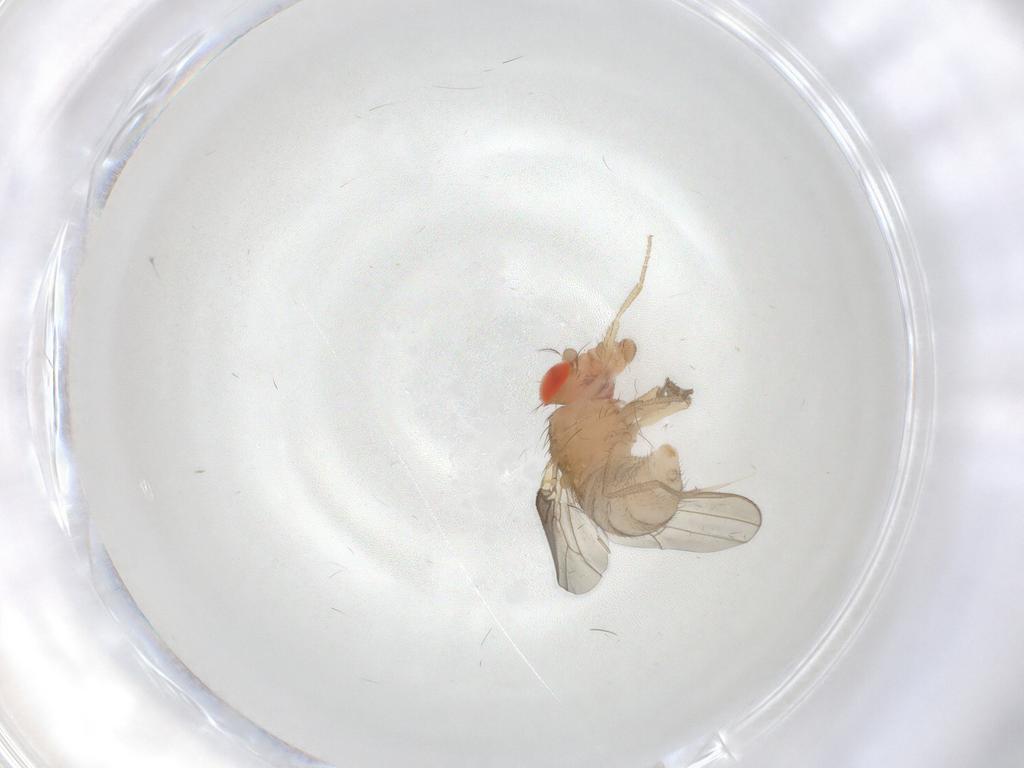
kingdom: Animalia
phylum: Arthropoda
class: Insecta
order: Diptera
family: Drosophilidae
